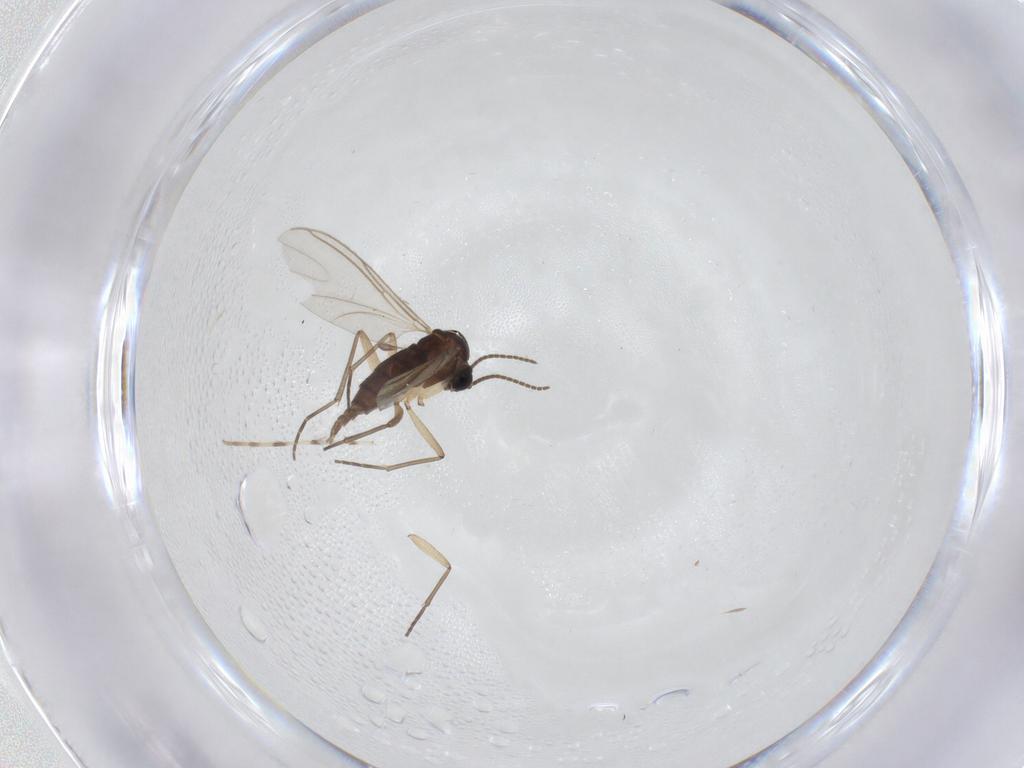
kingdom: Animalia
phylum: Arthropoda
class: Insecta
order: Diptera
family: Sciaridae
